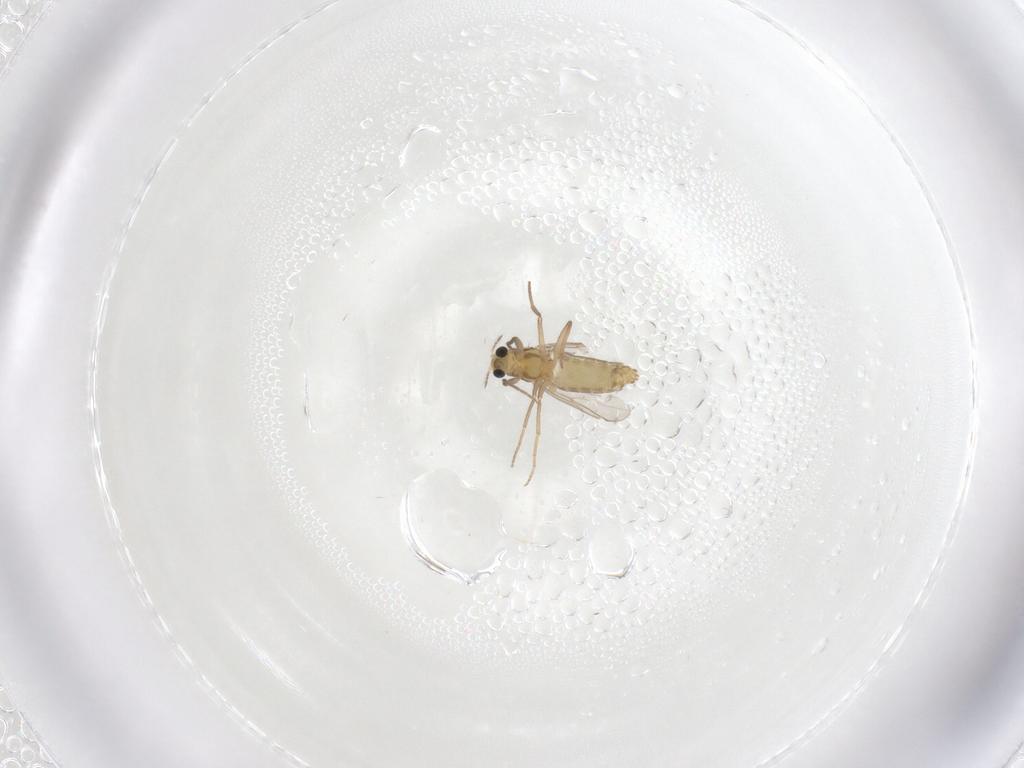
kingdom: Animalia
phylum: Arthropoda
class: Insecta
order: Diptera
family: Chironomidae
